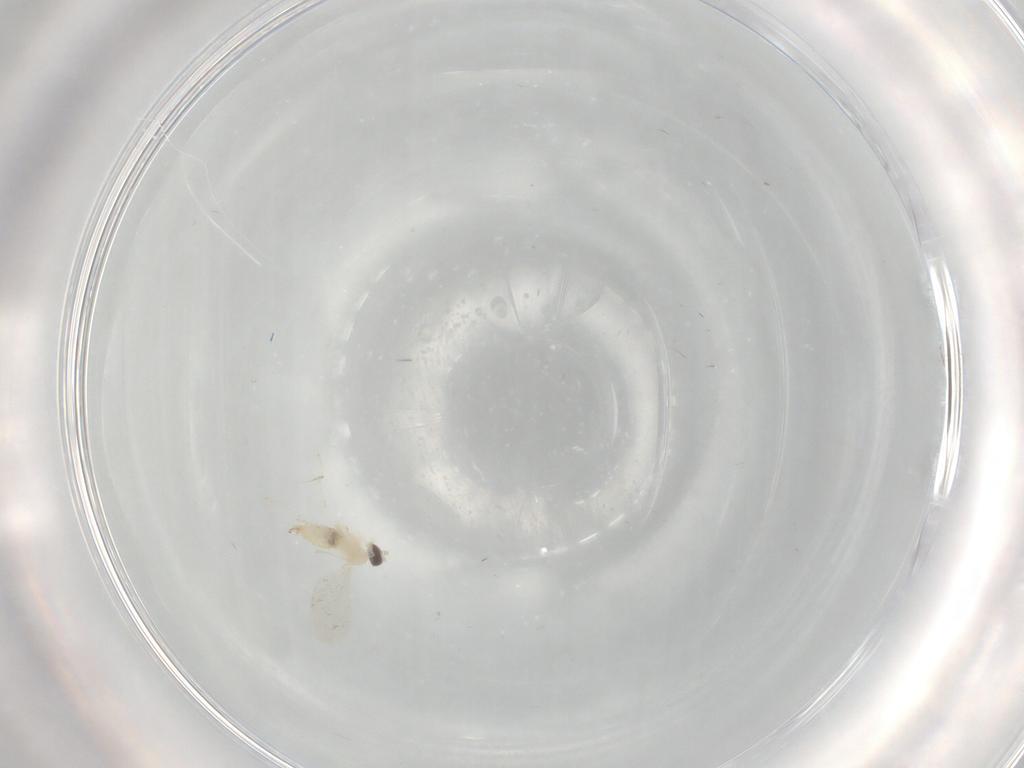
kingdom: Animalia
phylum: Arthropoda
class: Insecta
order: Diptera
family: Cecidomyiidae
